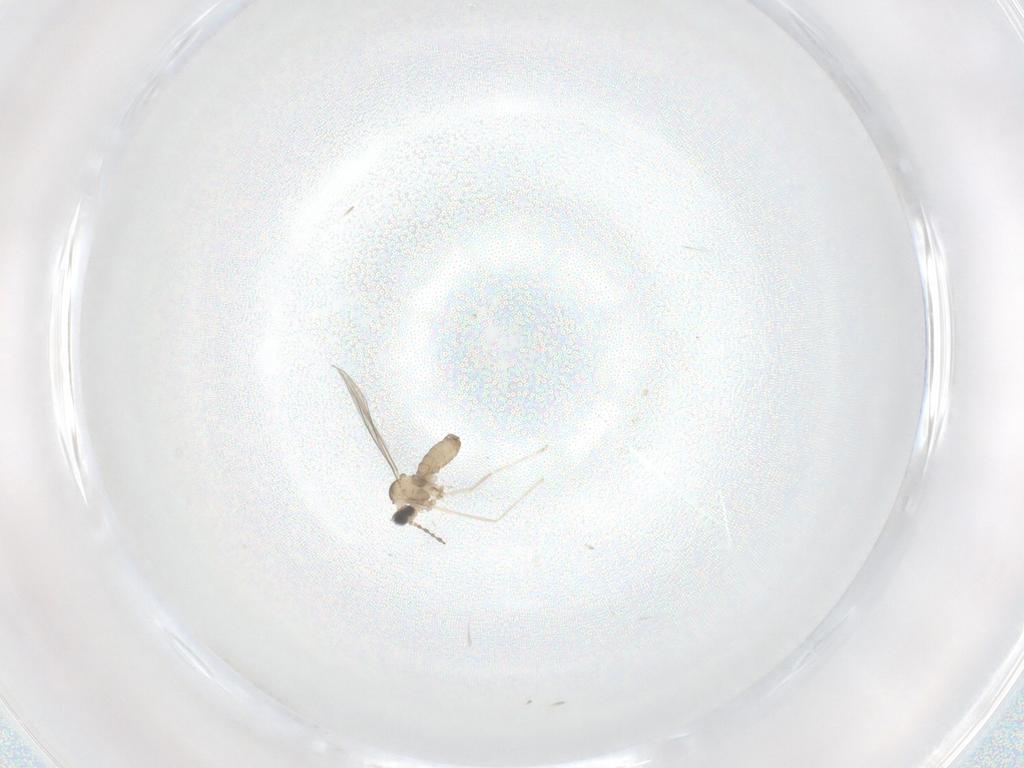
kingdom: Animalia
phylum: Arthropoda
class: Insecta
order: Diptera
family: Cecidomyiidae
